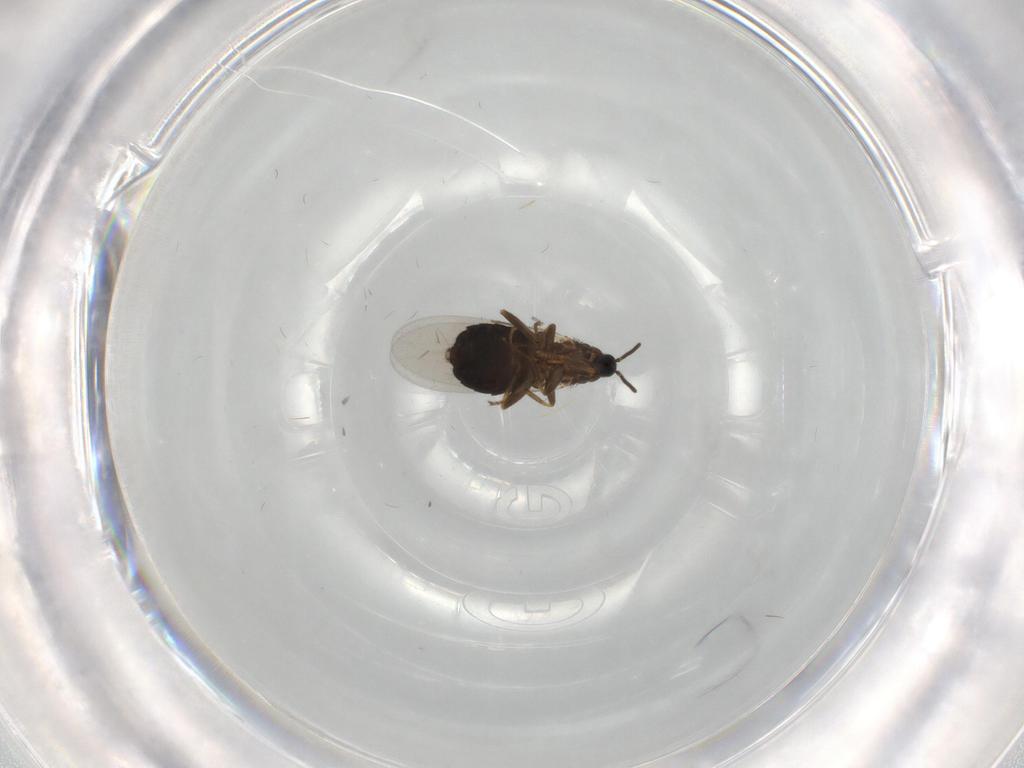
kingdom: Animalia
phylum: Arthropoda
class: Insecta
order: Diptera
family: Scatopsidae
